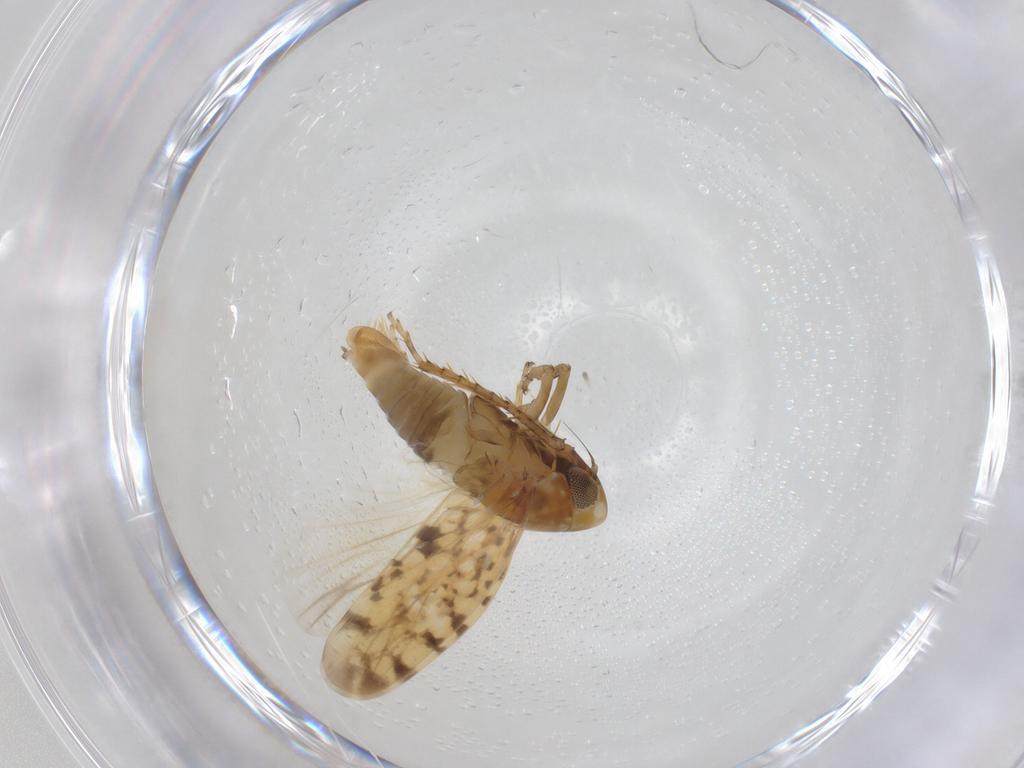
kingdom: Animalia
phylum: Arthropoda
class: Insecta
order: Hemiptera
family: Cicadellidae
